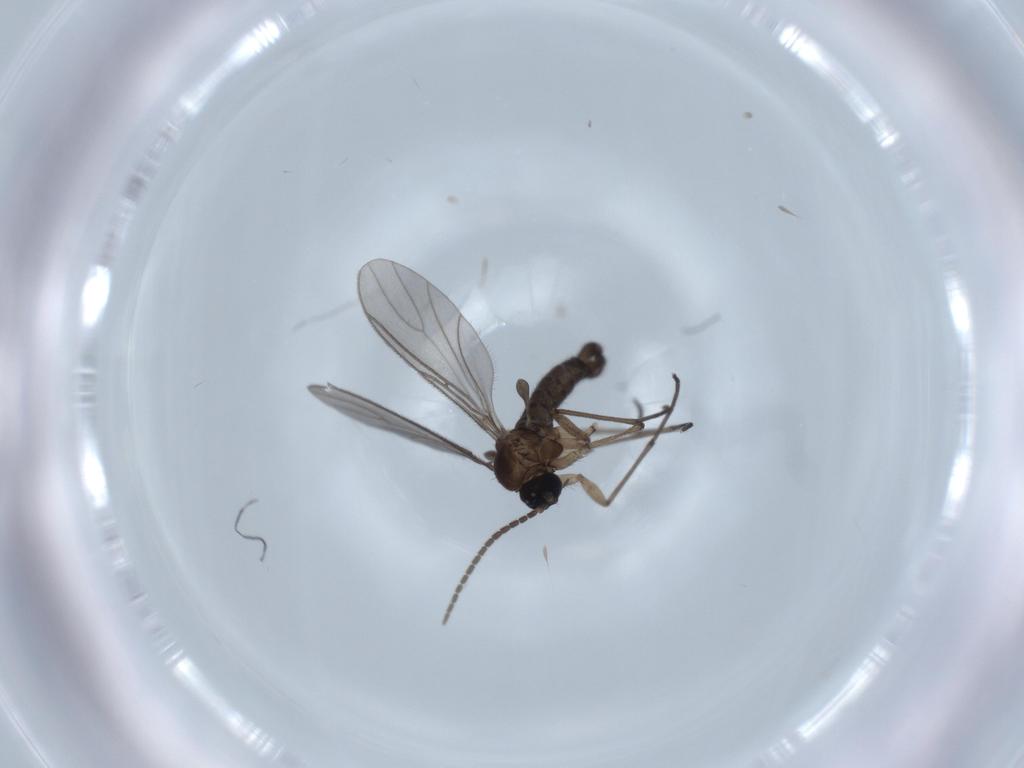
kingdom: Animalia
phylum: Arthropoda
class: Insecta
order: Diptera
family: Sciaridae
